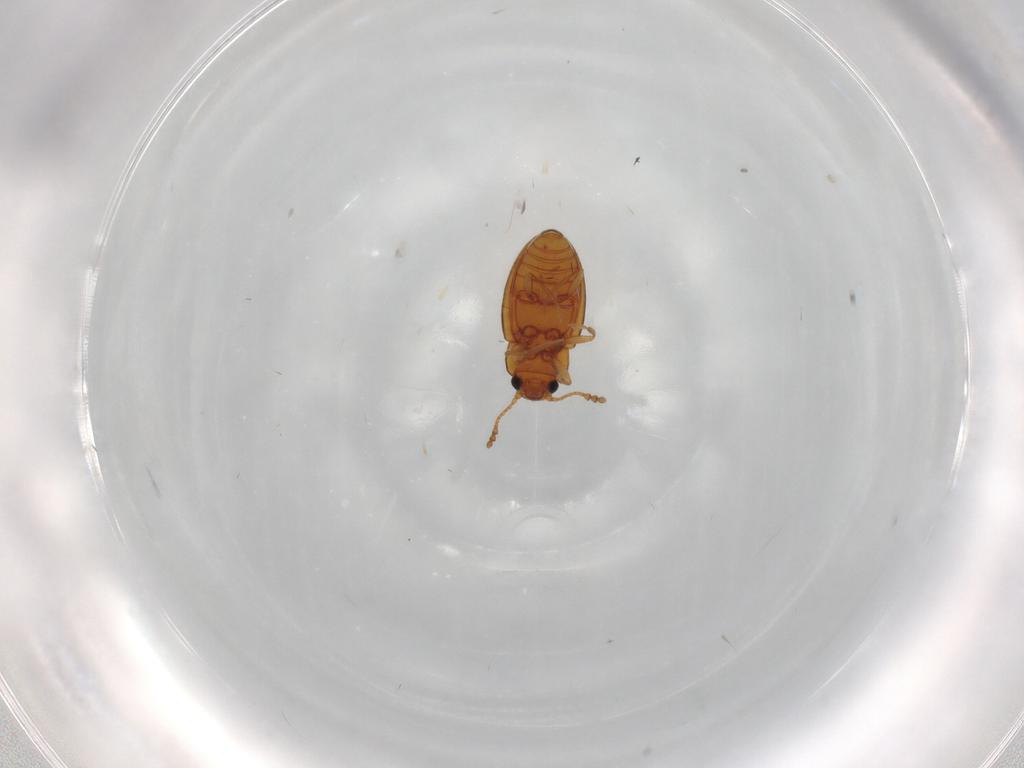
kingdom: Animalia
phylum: Arthropoda
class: Insecta
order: Coleoptera
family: Erotylidae
